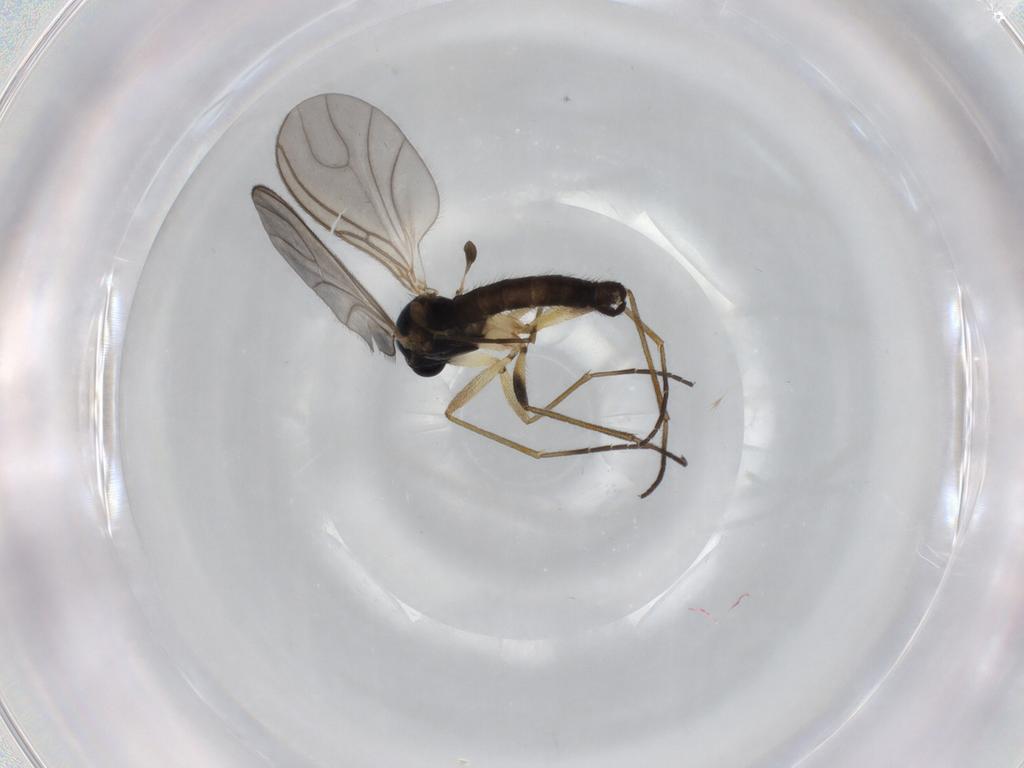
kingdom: Animalia
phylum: Arthropoda
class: Insecta
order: Diptera
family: Sciaridae
